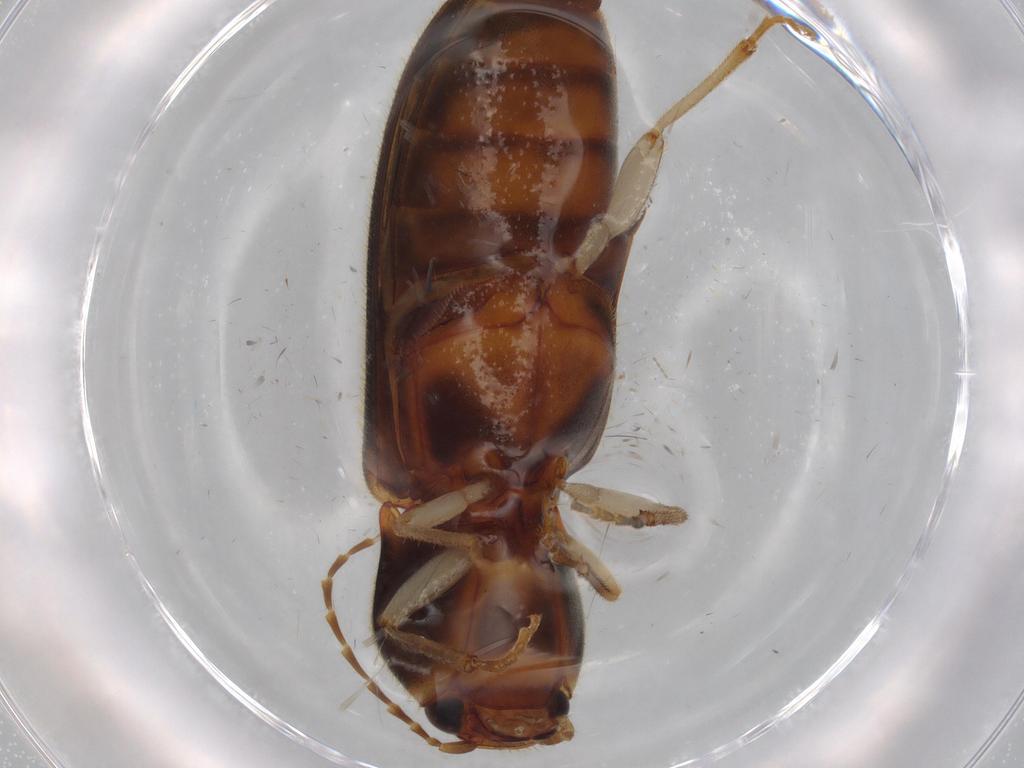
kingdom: Animalia
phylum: Arthropoda
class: Insecta
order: Coleoptera
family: Elateridae
